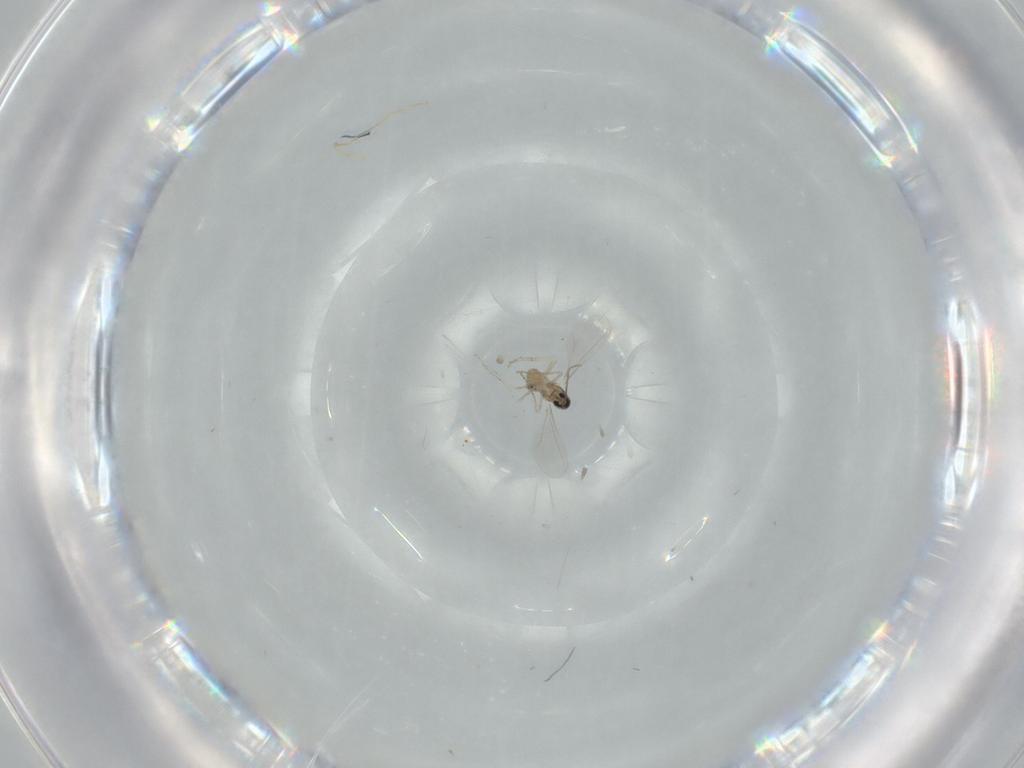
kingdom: Animalia
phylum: Arthropoda
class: Insecta
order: Diptera
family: Cecidomyiidae
